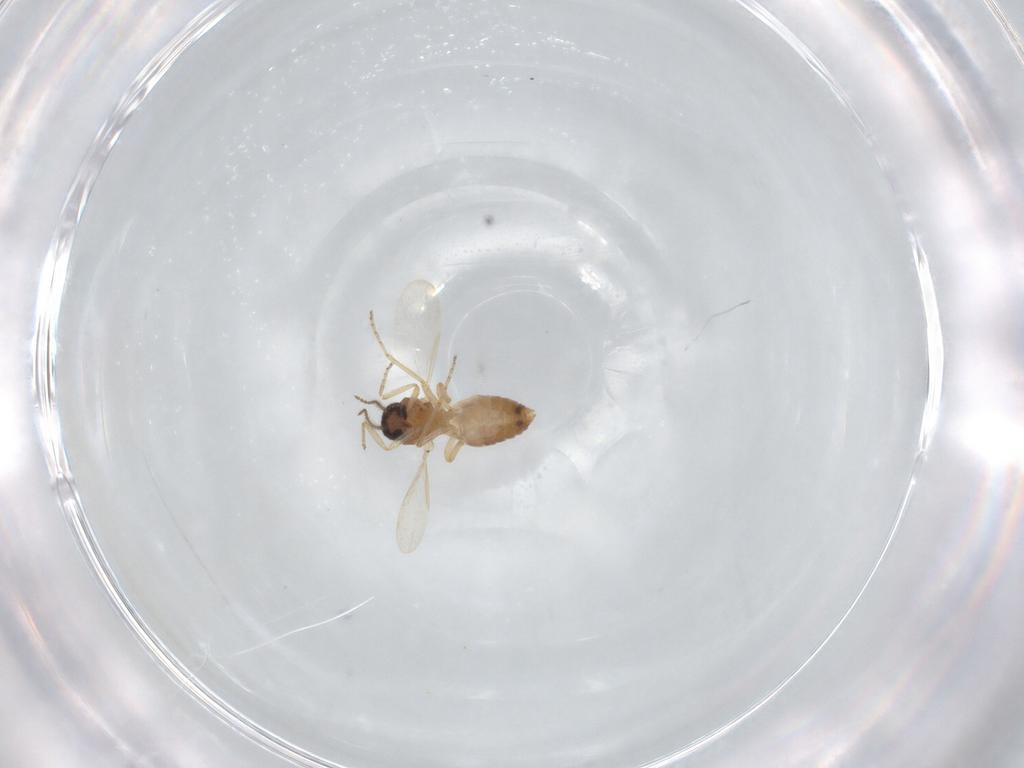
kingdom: Animalia
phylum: Arthropoda
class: Insecta
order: Diptera
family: Ceratopogonidae
